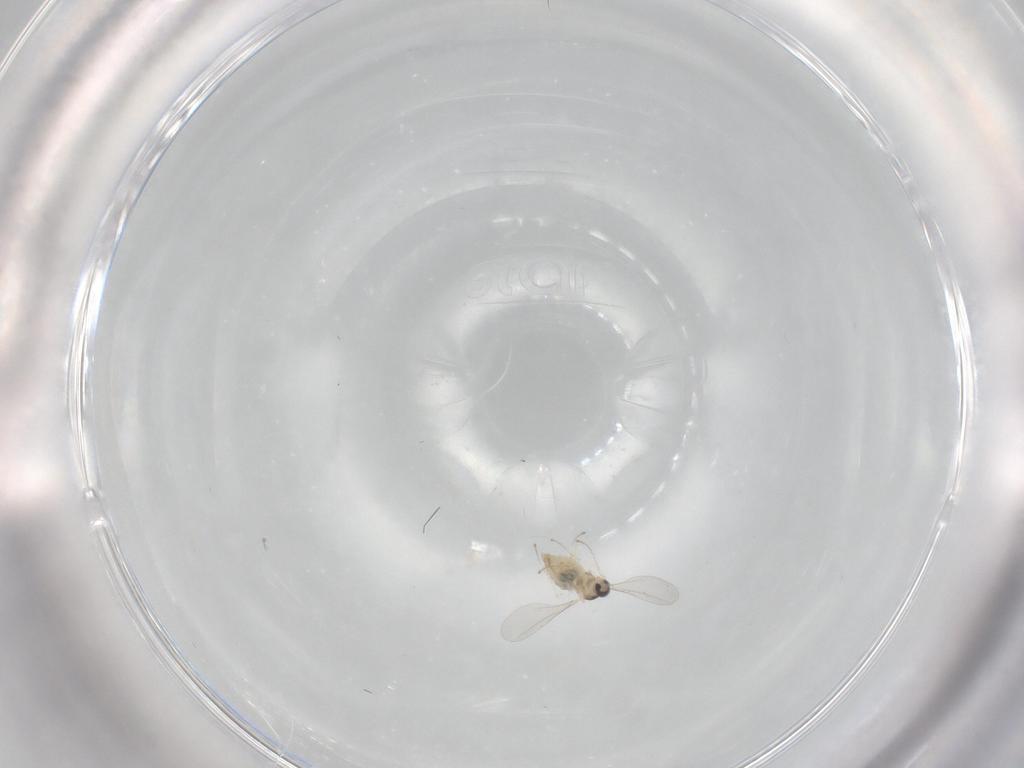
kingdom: Animalia
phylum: Arthropoda
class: Insecta
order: Diptera
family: Cecidomyiidae
